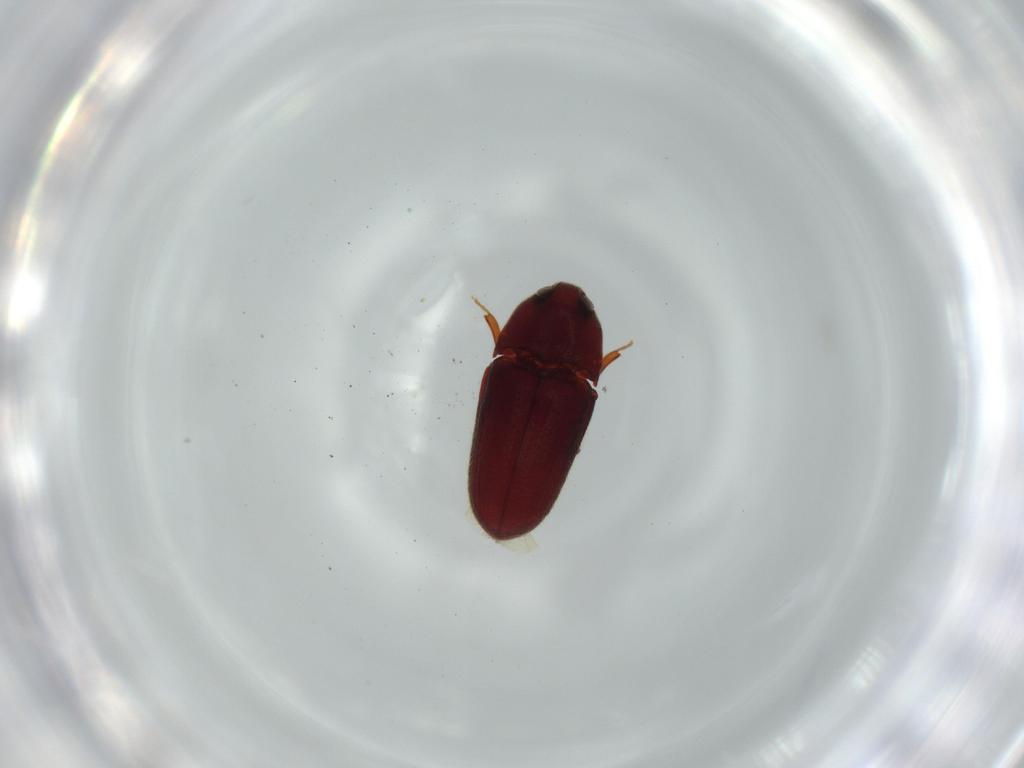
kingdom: Animalia
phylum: Arthropoda
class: Insecta
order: Coleoptera
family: Throscidae
